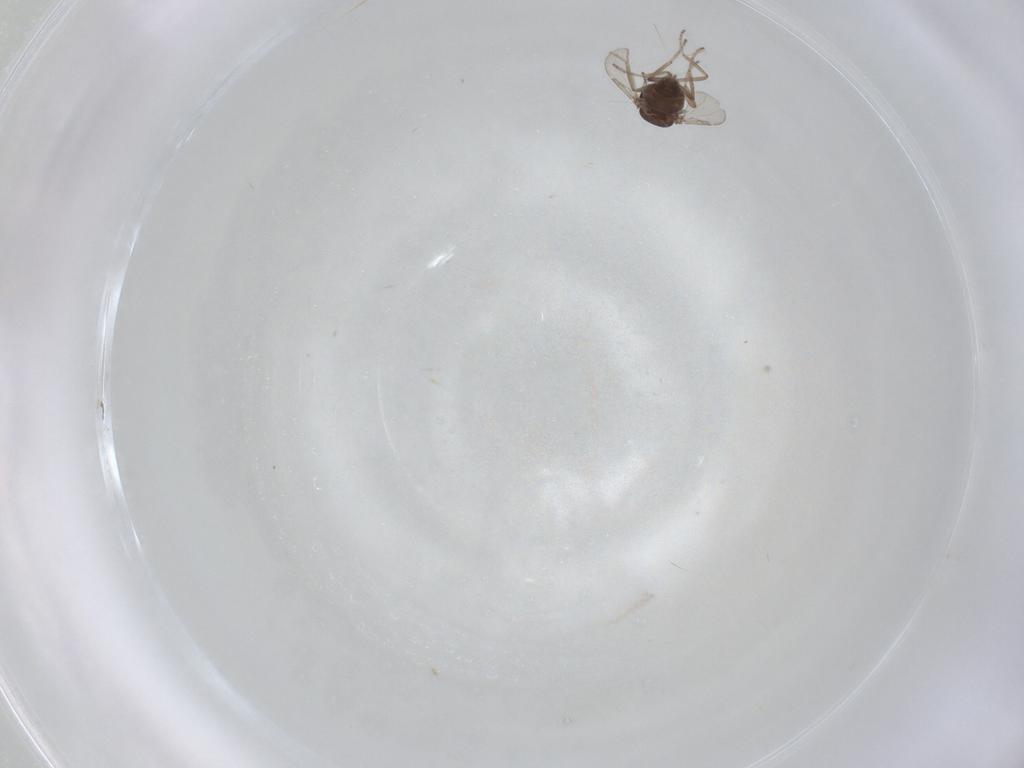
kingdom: Animalia
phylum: Arthropoda
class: Insecta
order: Diptera
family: Ceratopogonidae
